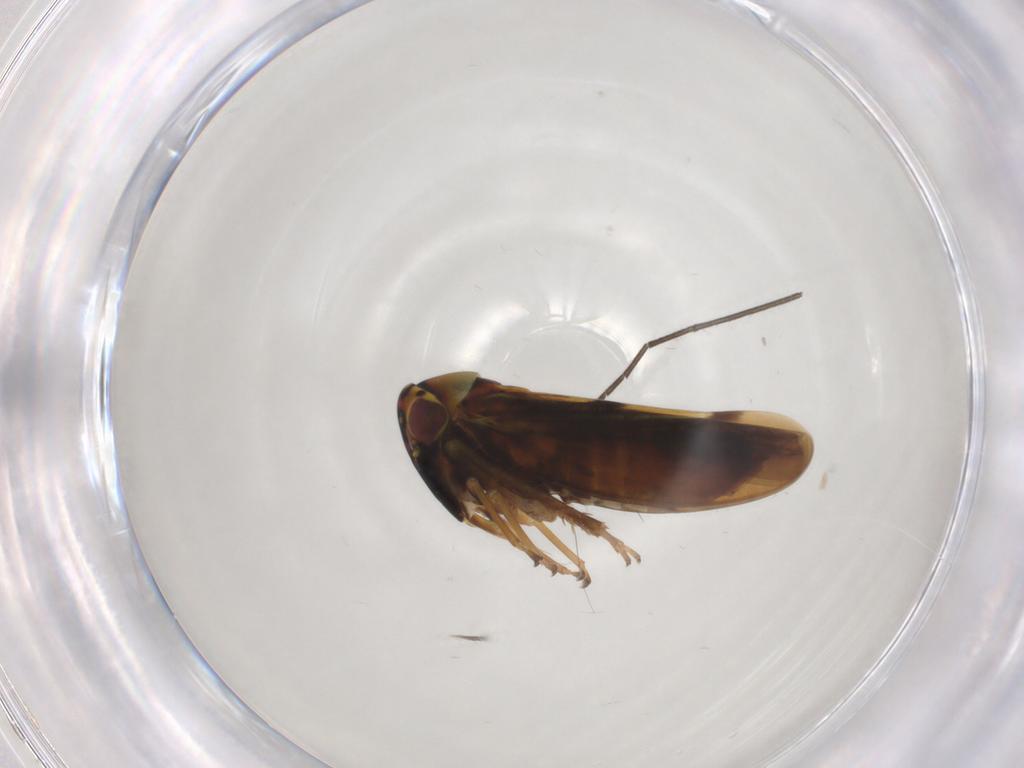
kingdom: Animalia
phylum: Arthropoda
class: Insecta
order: Hemiptera
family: Cicadellidae
